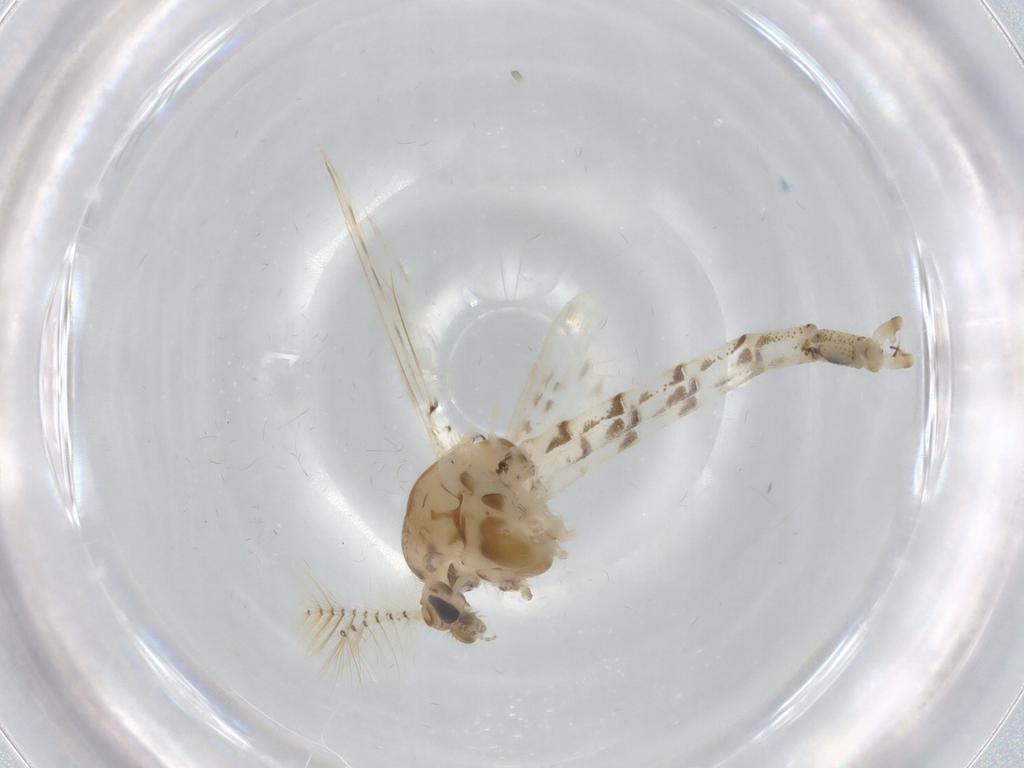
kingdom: Animalia
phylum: Arthropoda
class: Insecta
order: Diptera
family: Chaoboridae
